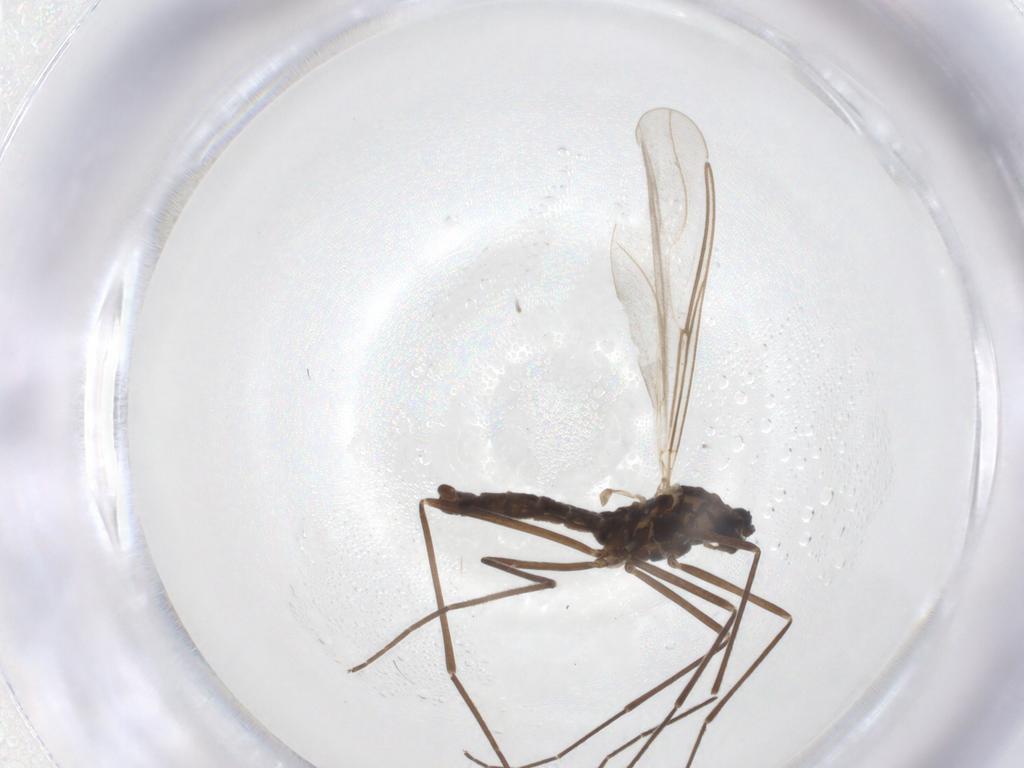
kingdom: Animalia
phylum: Arthropoda
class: Insecta
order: Diptera
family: Cecidomyiidae
